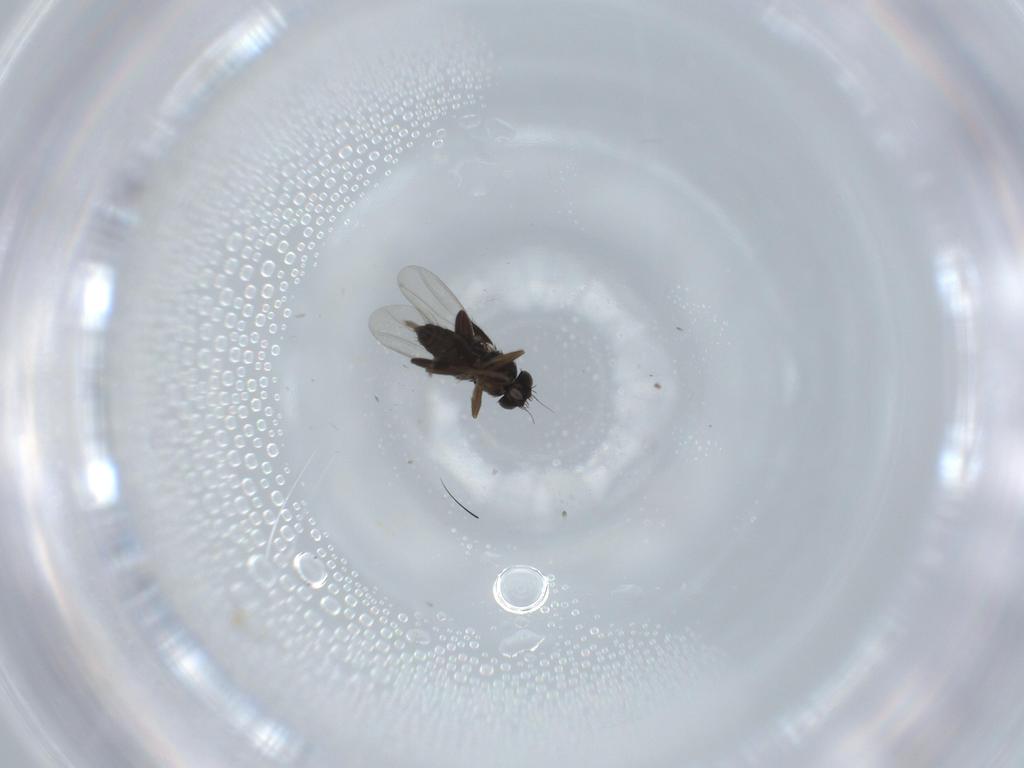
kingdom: Animalia
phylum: Arthropoda
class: Insecta
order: Diptera
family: Phoridae
